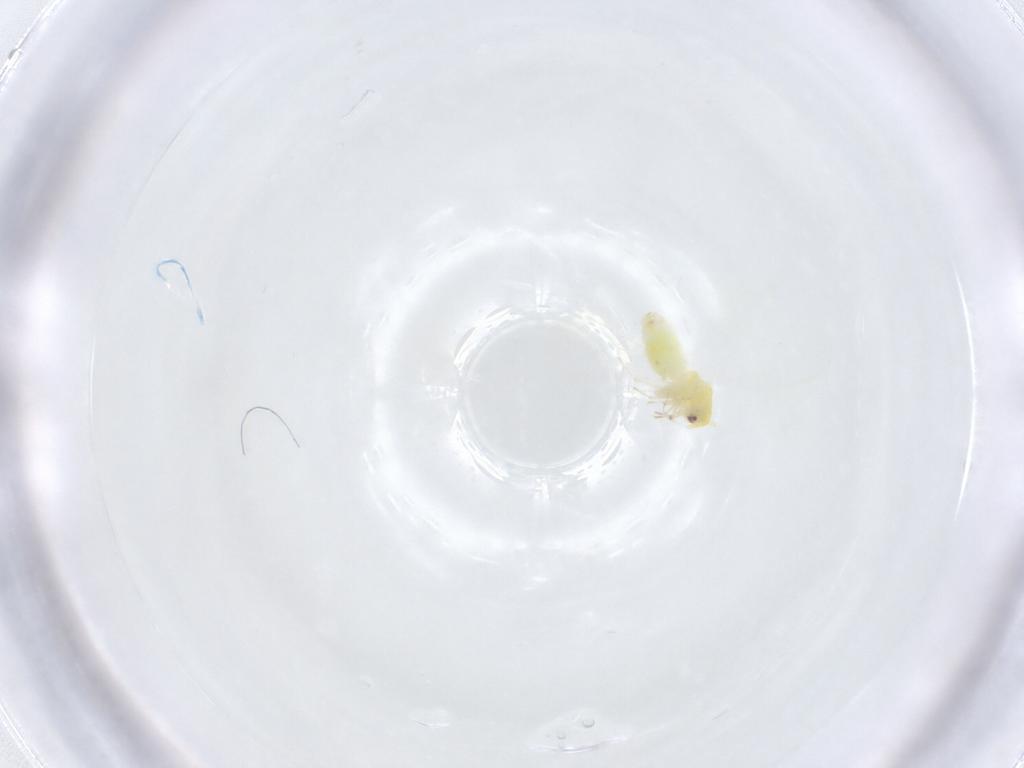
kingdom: Animalia
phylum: Arthropoda
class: Insecta
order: Hemiptera
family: Aleyrodidae
